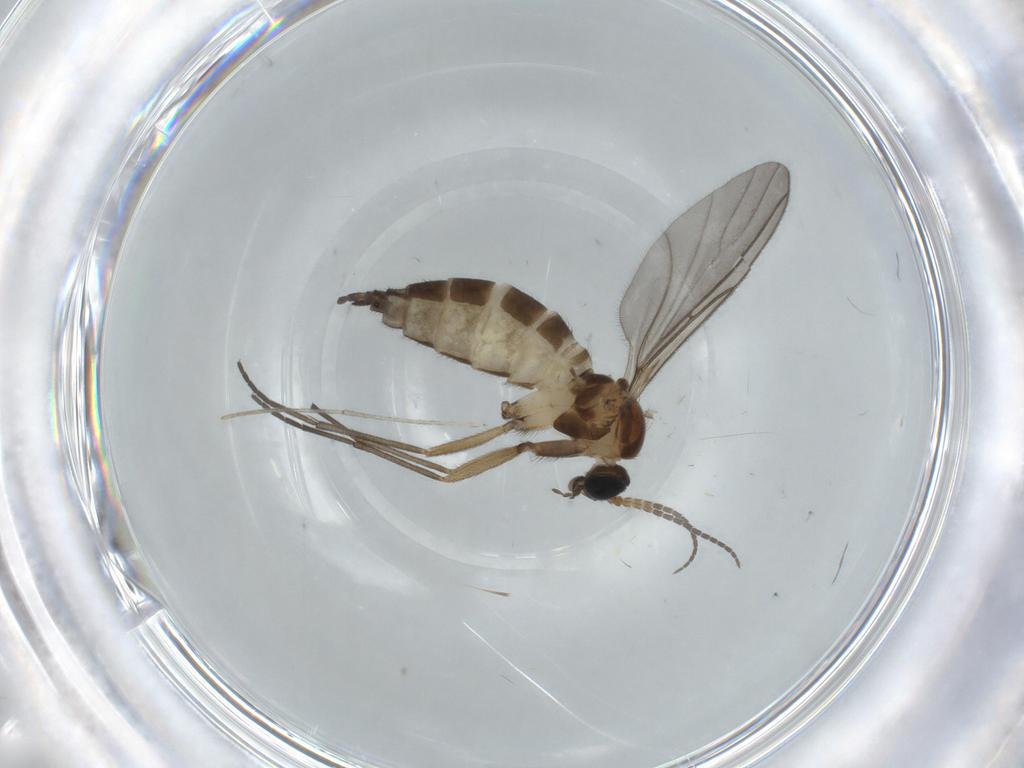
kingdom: Animalia
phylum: Arthropoda
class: Insecta
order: Diptera
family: Sciaridae
